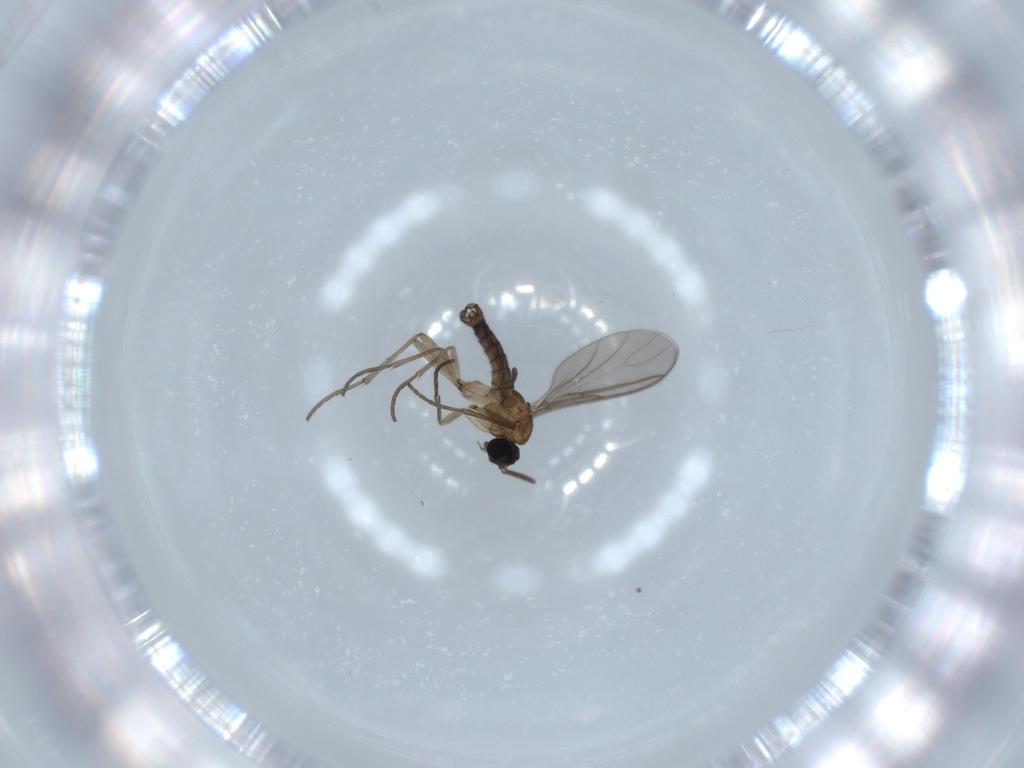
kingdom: Animalia
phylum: Arthropoda
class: Insecta
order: Diptera
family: Sciaridae
